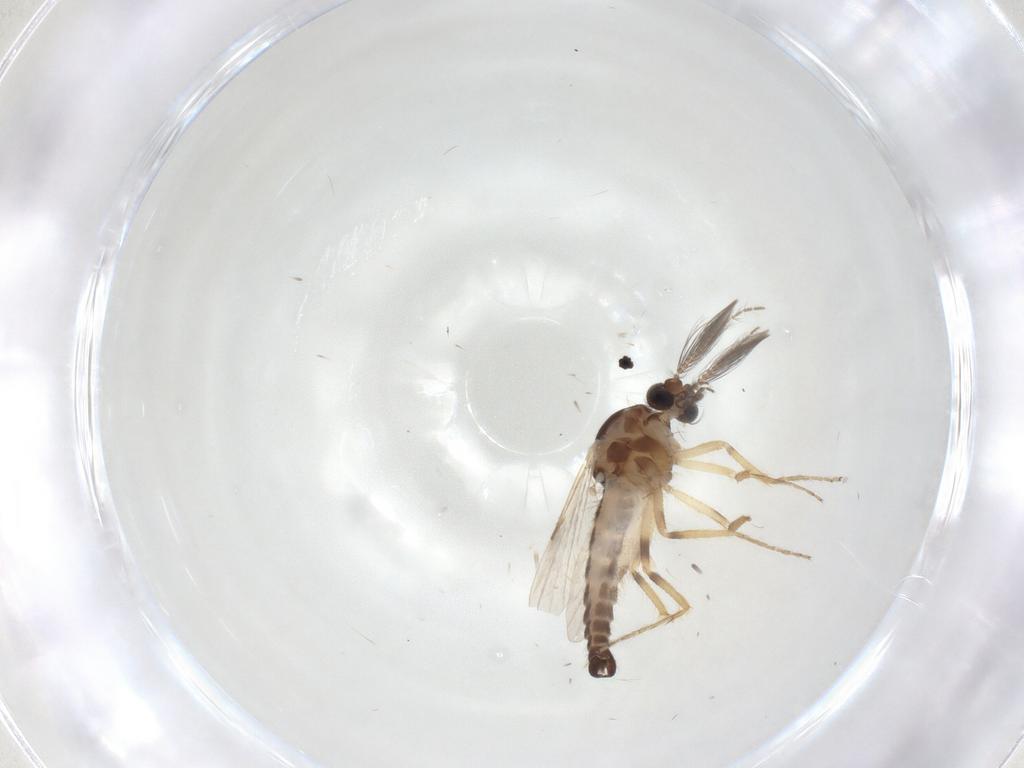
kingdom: Animalia
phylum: Arthropoda
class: Insecta
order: Diptera
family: Ceratopogonidae
